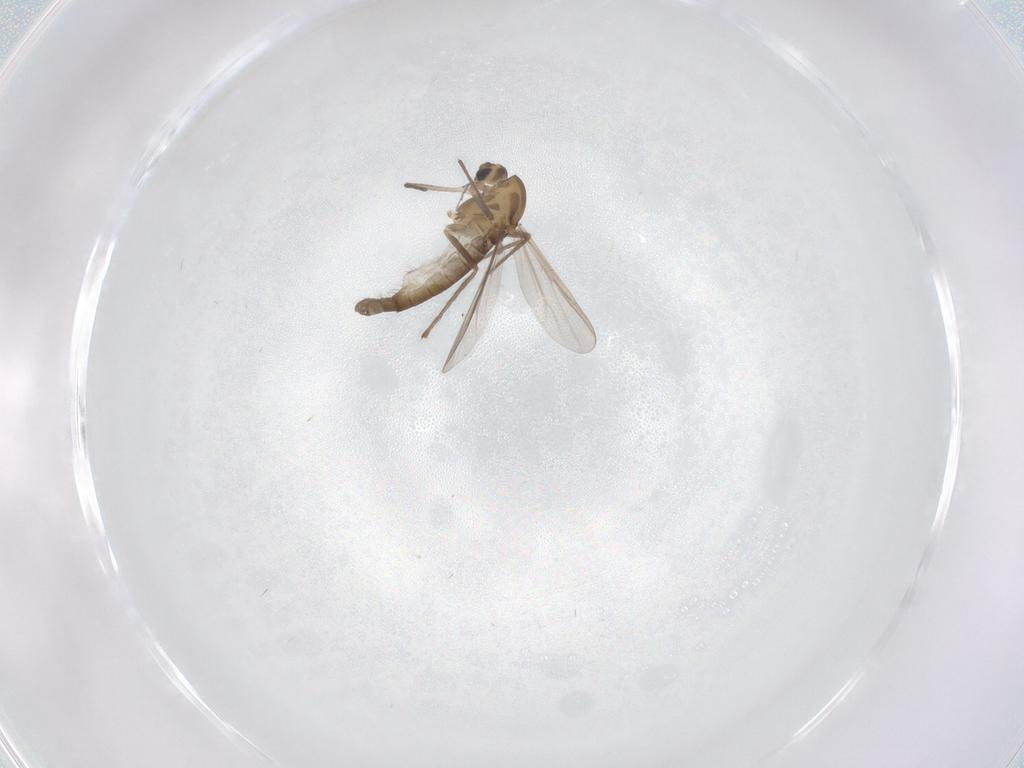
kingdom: Animalia
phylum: Arthropoda
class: Insecta
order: Diptera
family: Chironomidae
